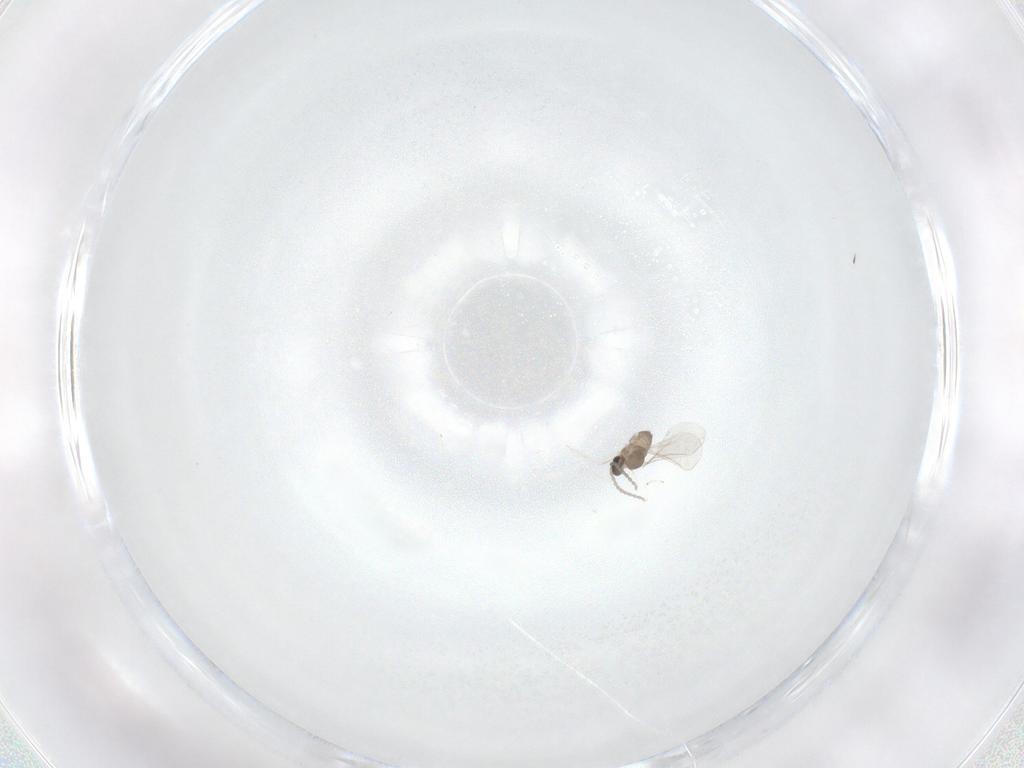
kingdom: Animalia
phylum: Arthropoda
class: Insecta
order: Diptera
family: Cecidomyiidae
